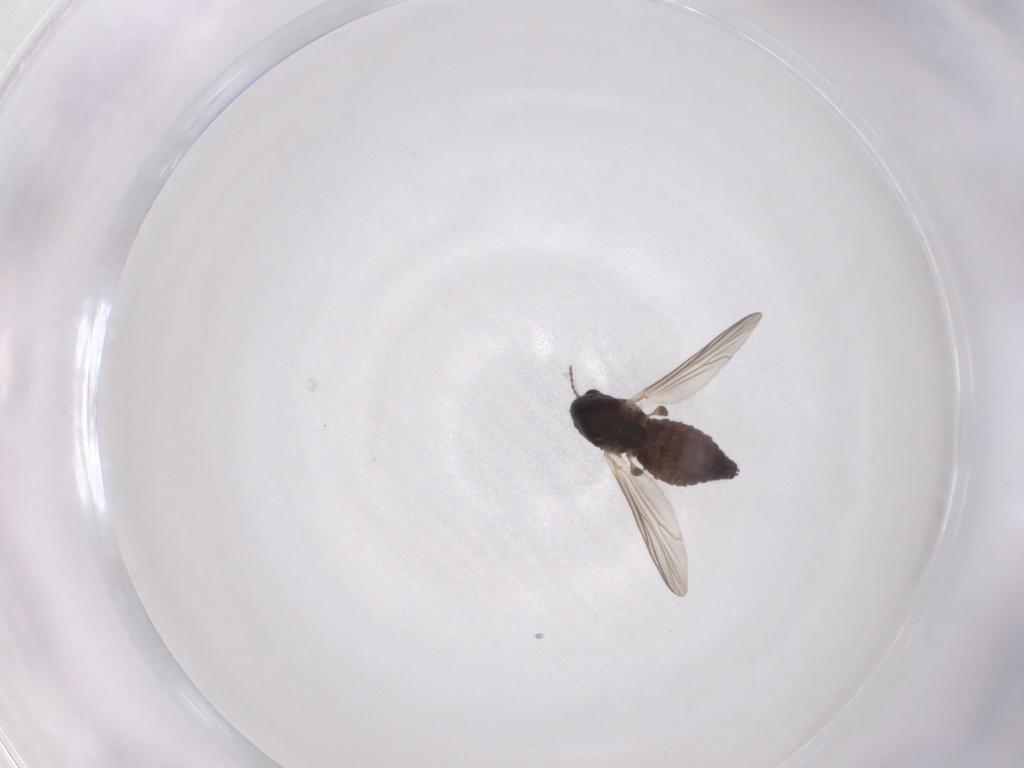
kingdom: Animalia
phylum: Arthropoda
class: Insecta
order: Diptera
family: Chironomidae
